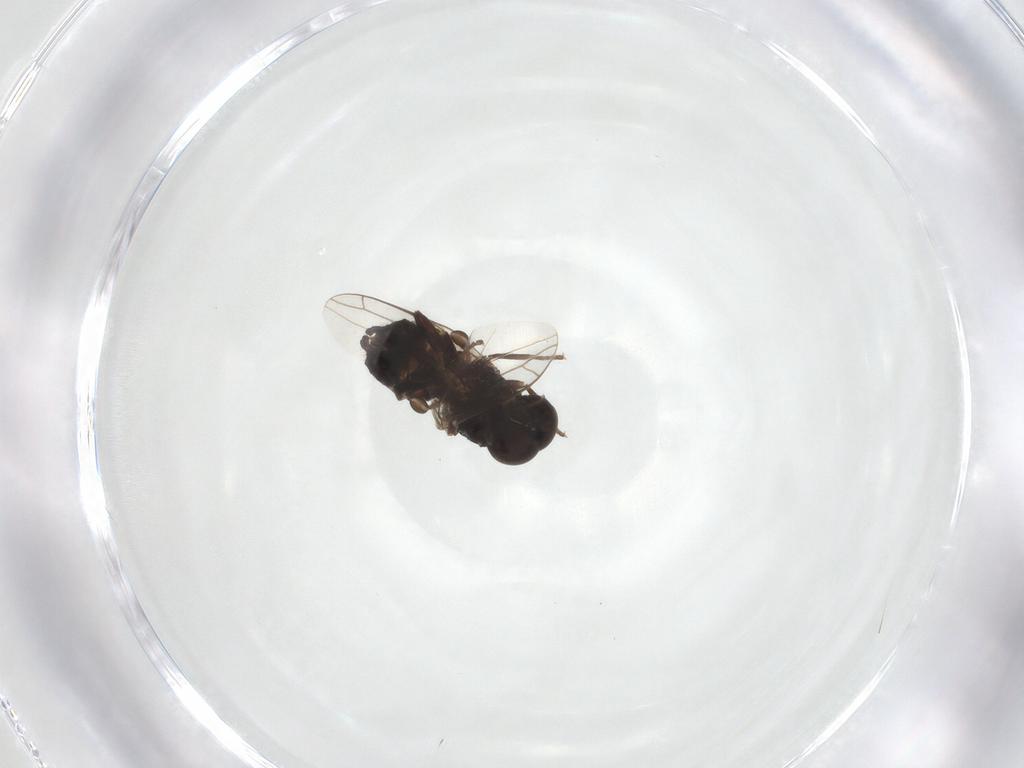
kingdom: Animalia
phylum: Arthropoda
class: Insecta
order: Diptera
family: Scenopinidae
